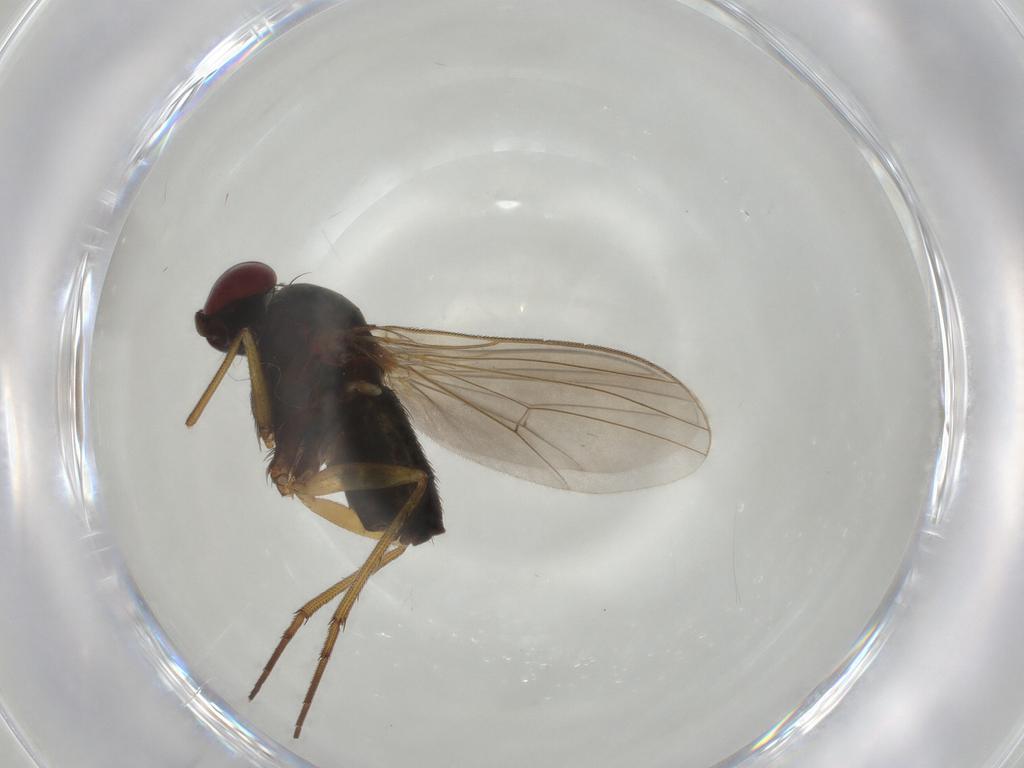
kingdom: Animalia
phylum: Arthropoda
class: Insecta
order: Diptera
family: Dolichopodidae
